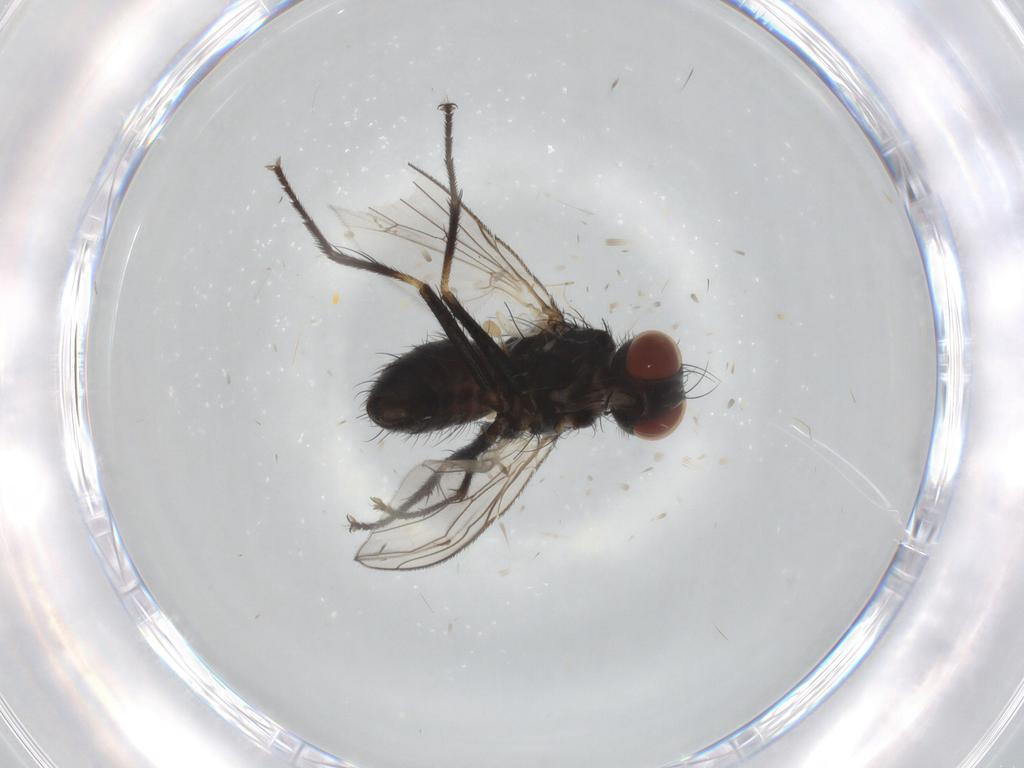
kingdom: Animalia
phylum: Arthropoda
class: Insecta
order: Diptera
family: Muscidae
